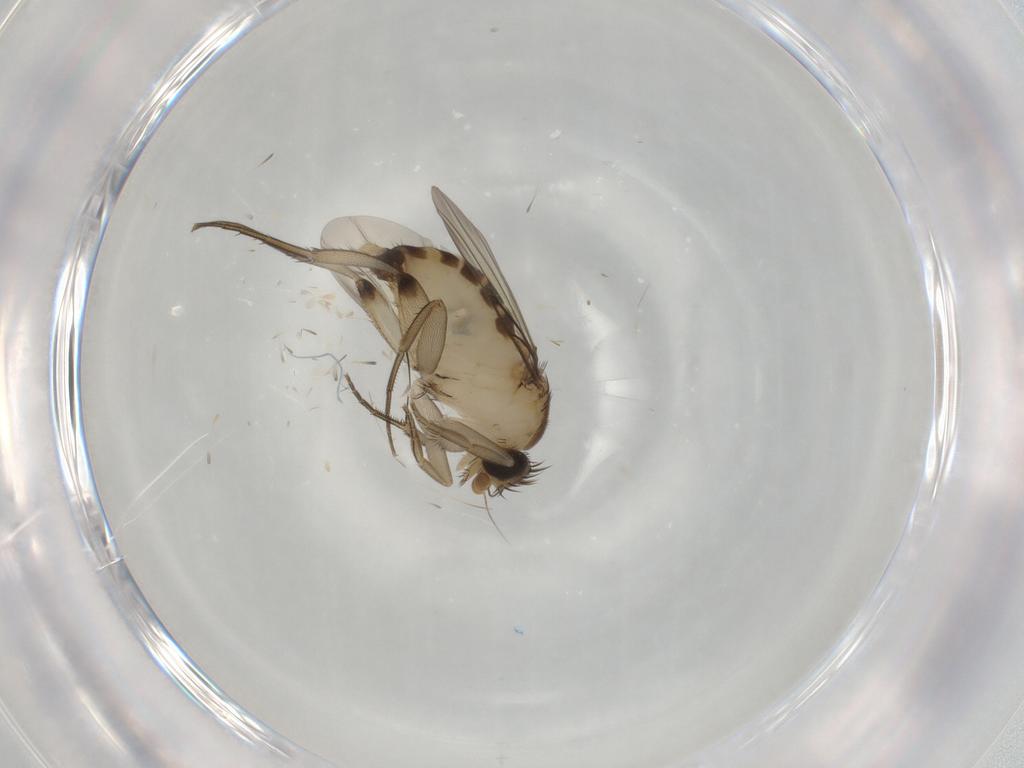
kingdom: Animalia
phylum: Arthropoda
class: Insecta
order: Diptera
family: Phoridae
